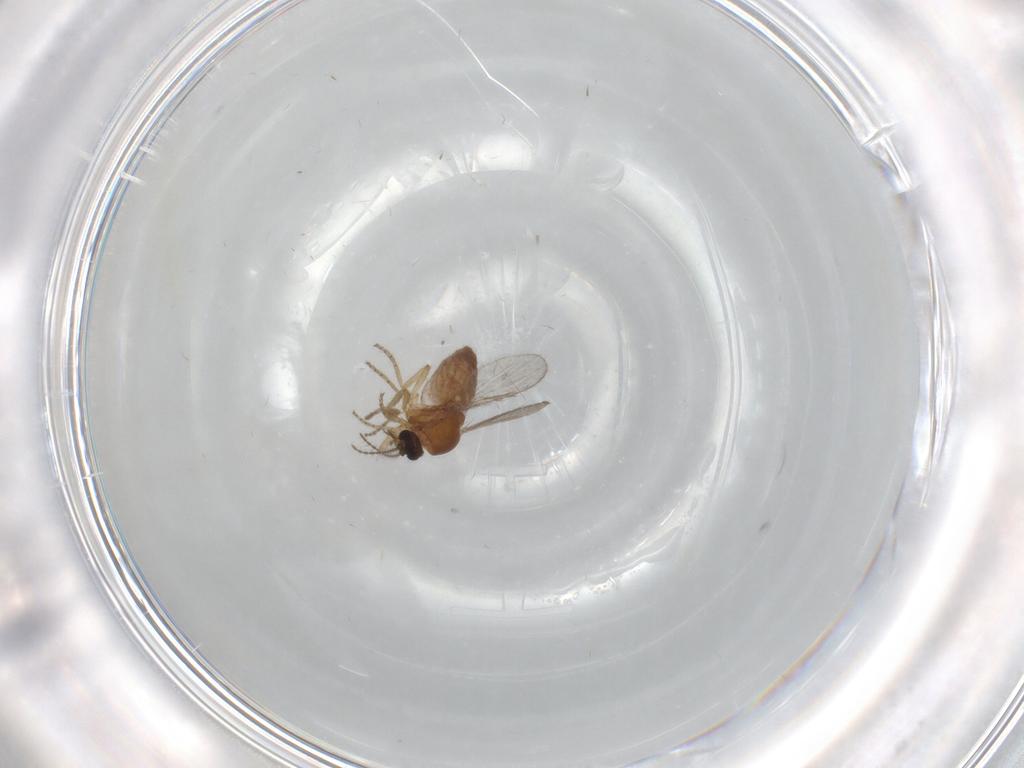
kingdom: Animalia
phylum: Arthropoda
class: Insecta
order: Diptera
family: Ceratopogonidae
